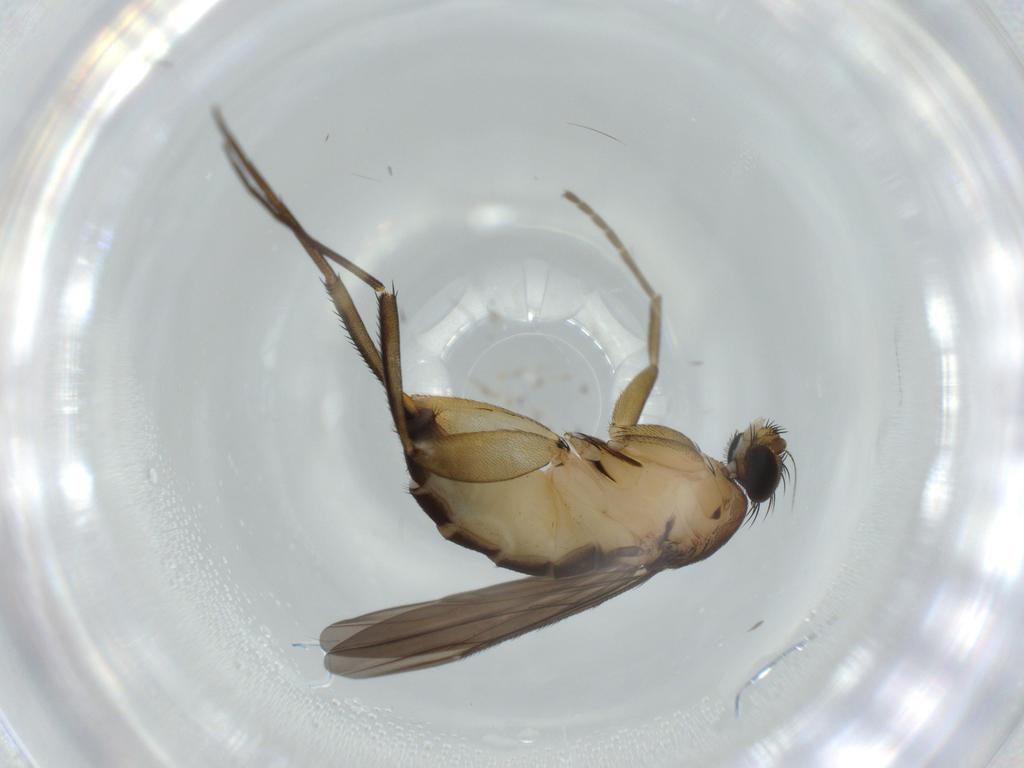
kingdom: Animalia
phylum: Arthropoda
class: Insecta
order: Diptera
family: Phoridae
